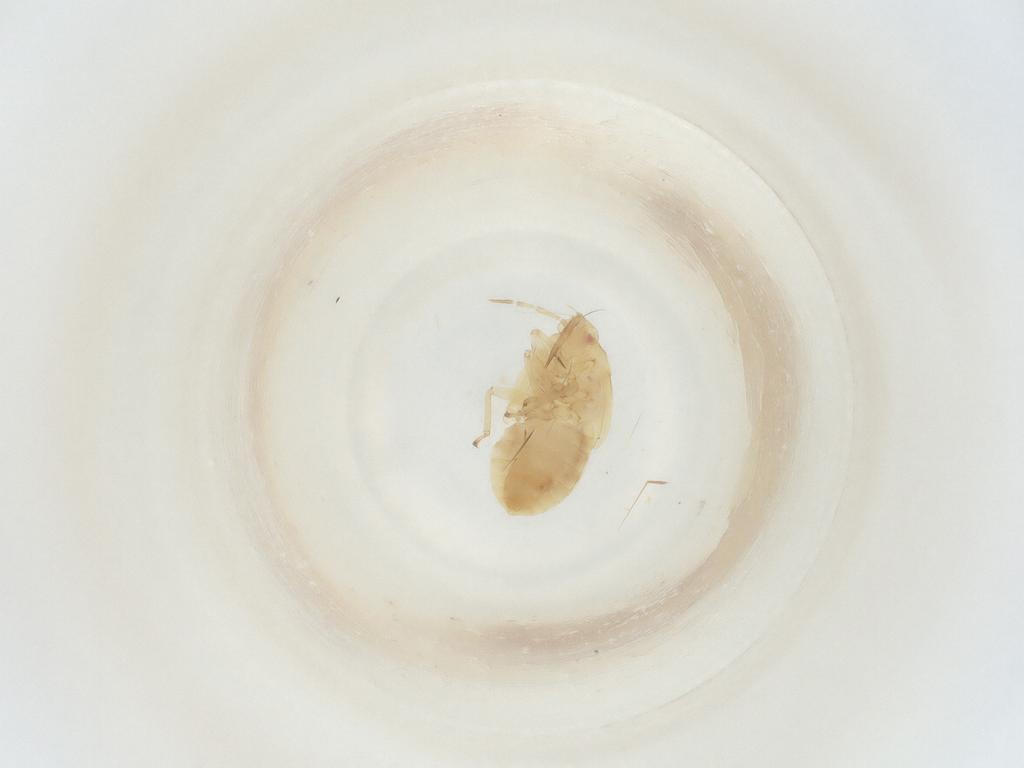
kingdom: Animalia
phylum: Arthropoda
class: Insecta
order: Hemiptera
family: Anthocoridae
